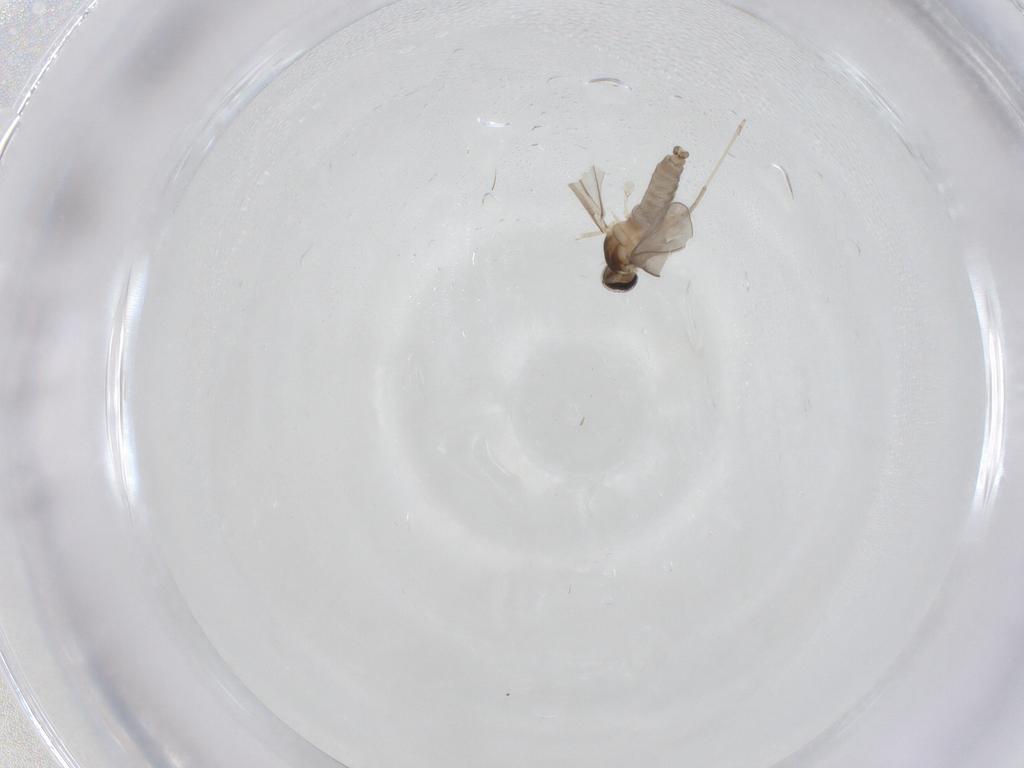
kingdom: Animalia
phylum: Arthropoda
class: Insecta
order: Diptera
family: Cecidomyiidae
